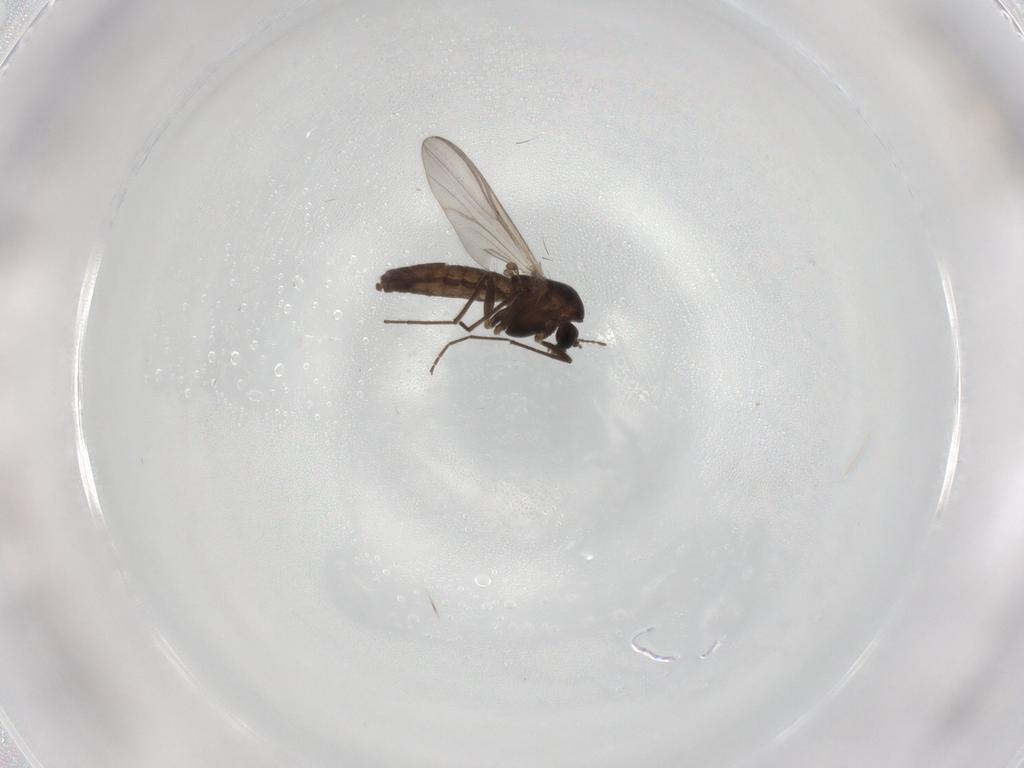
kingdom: Animalia
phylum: Arthropoda
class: Insecta
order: Diptera
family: Chironomidae
